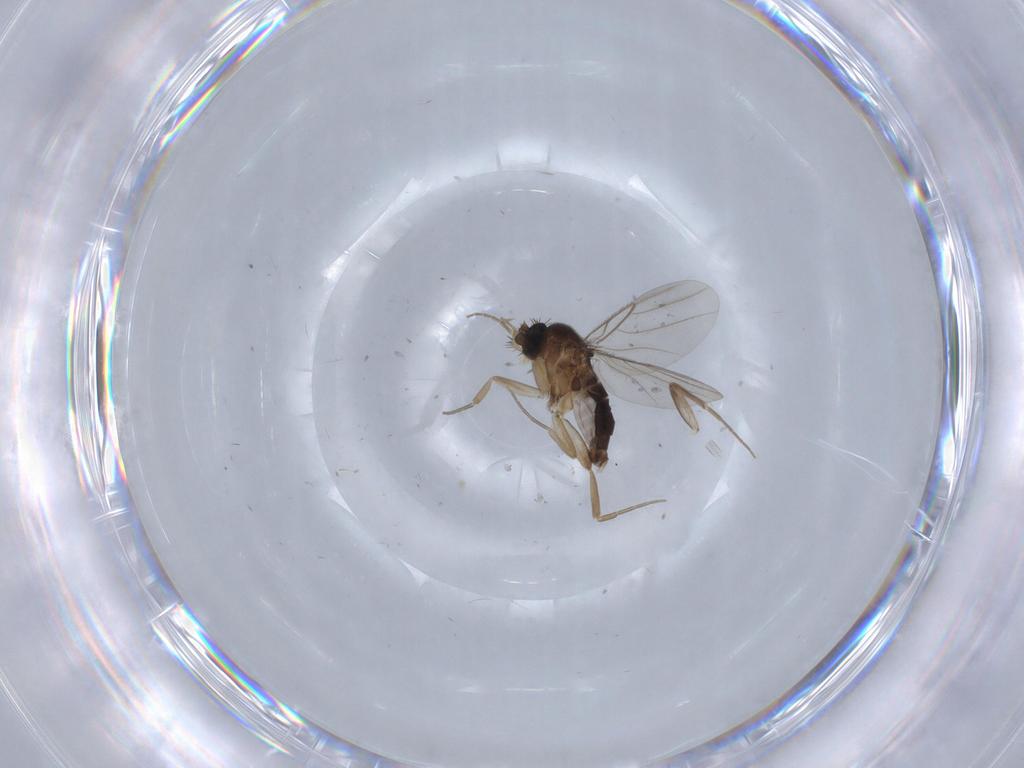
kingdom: Animalia
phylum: Arthropoda
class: Insecta
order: Diptera
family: Phoridae
